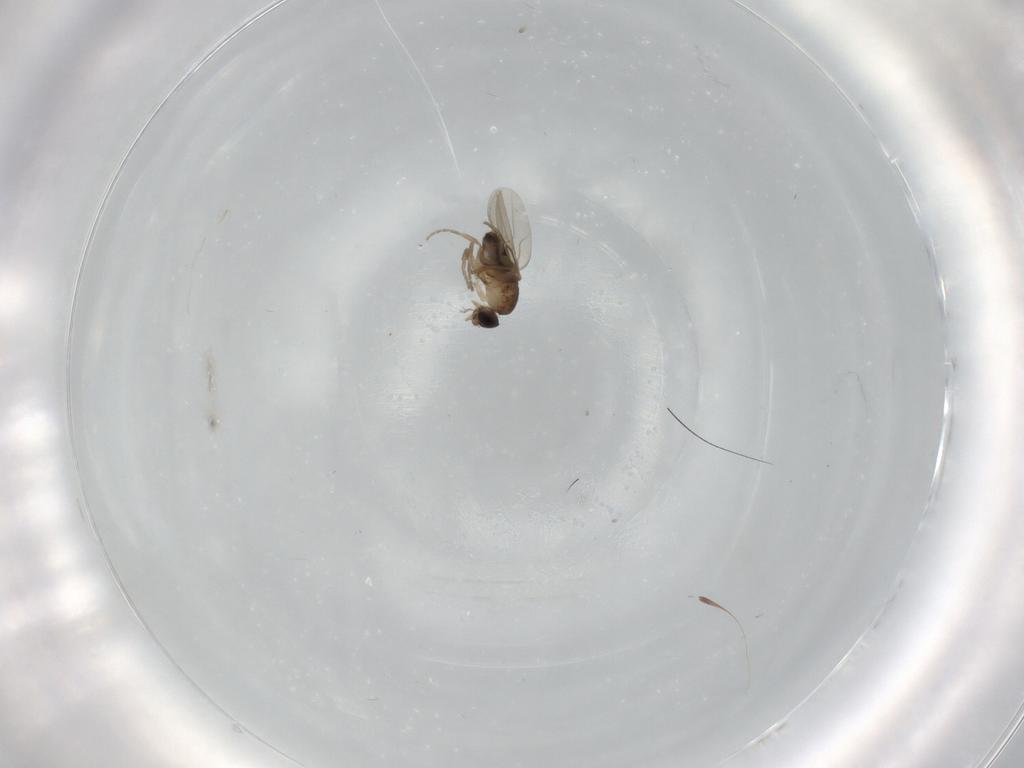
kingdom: Animalia
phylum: Arthropoda
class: Insecta
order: Diptera
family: Phoridae
